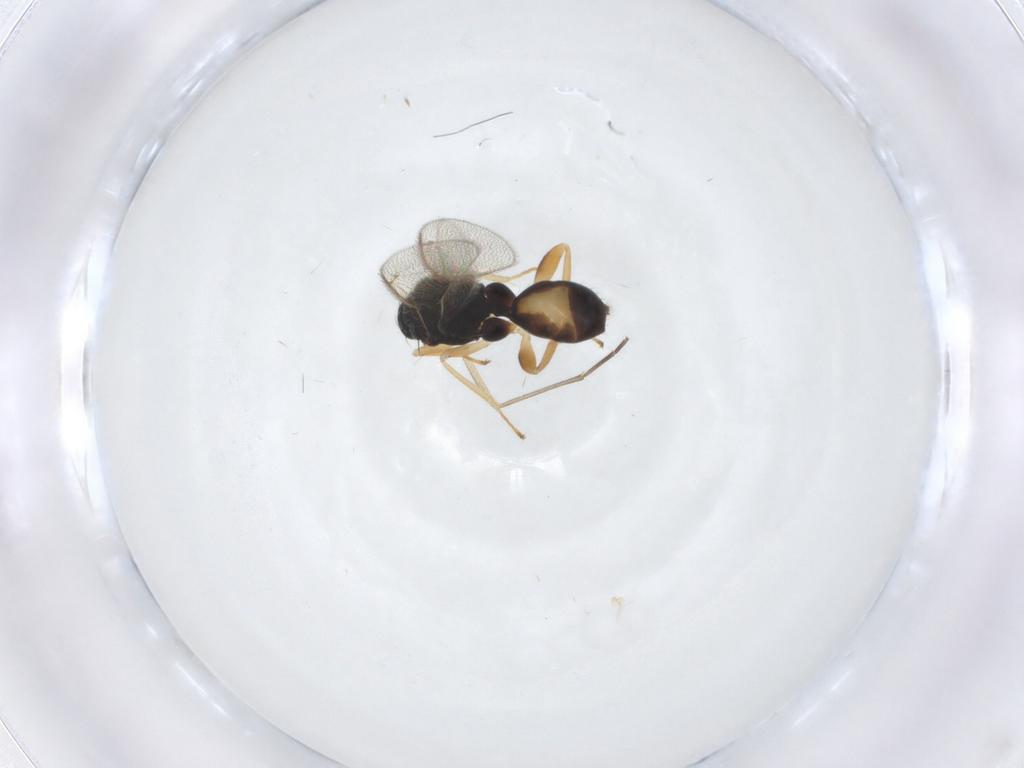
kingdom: Animalia
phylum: Arthropoda
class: Insecta
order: Hymenoptera
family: Eulophidae
